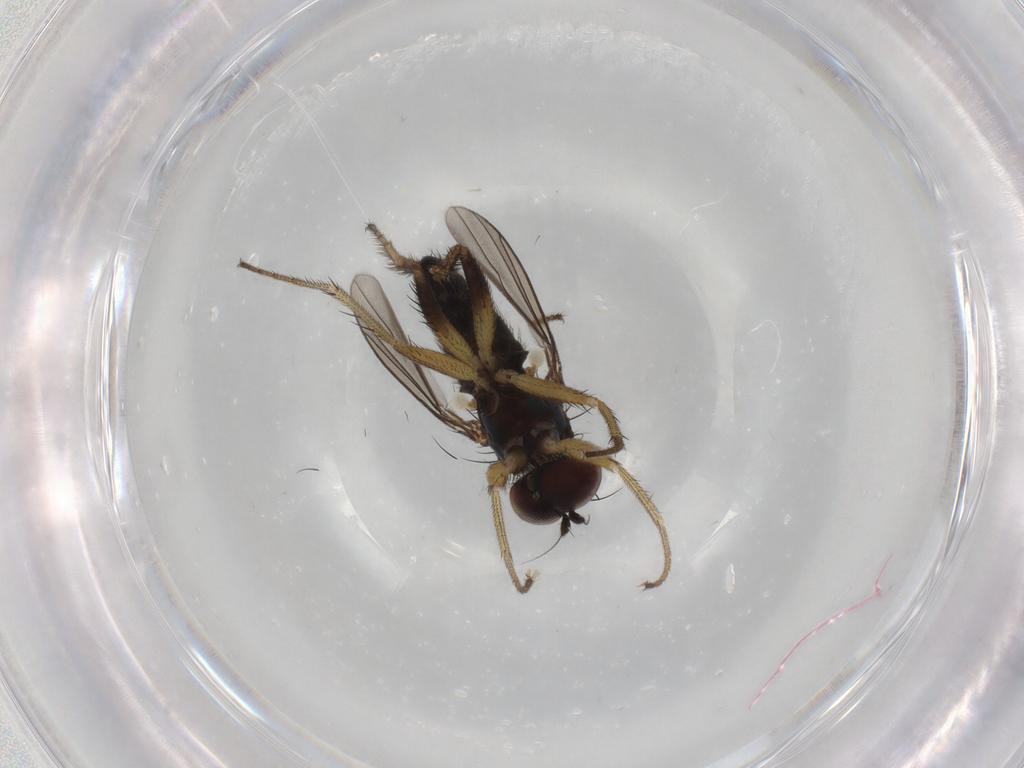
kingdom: Animalia
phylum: Arthropoda
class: Insecta
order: Diptera
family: Dolichopodidae
